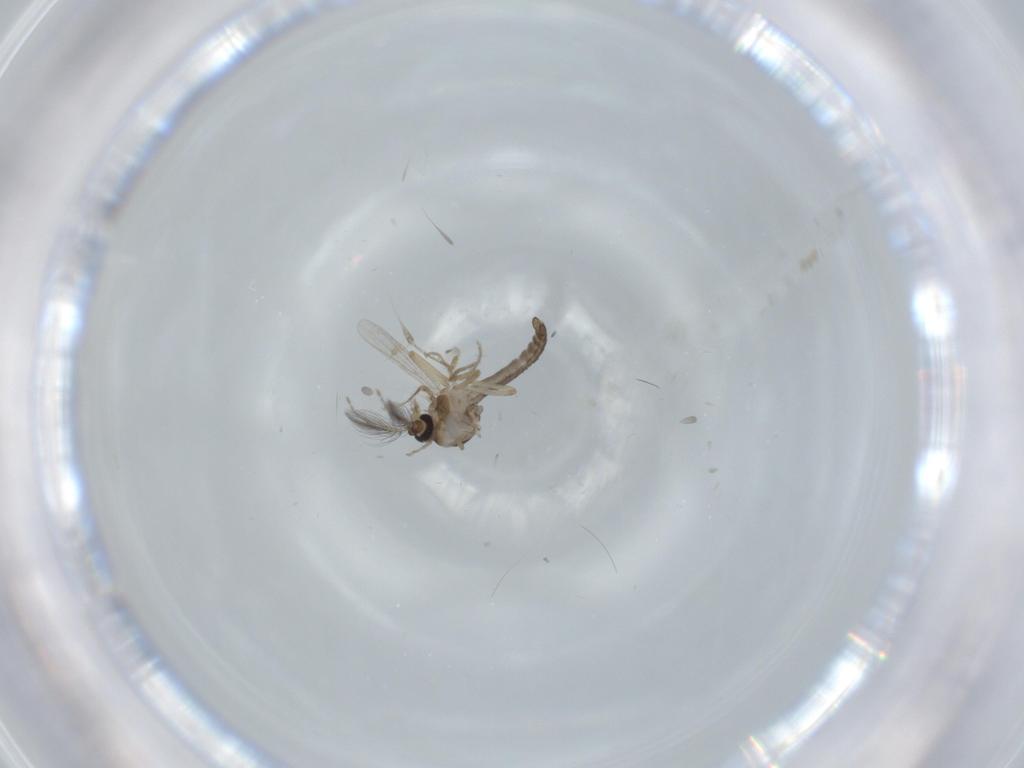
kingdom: Animalia
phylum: Arthropoda
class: Insecta
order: Diptera
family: Ceratopogonidae
